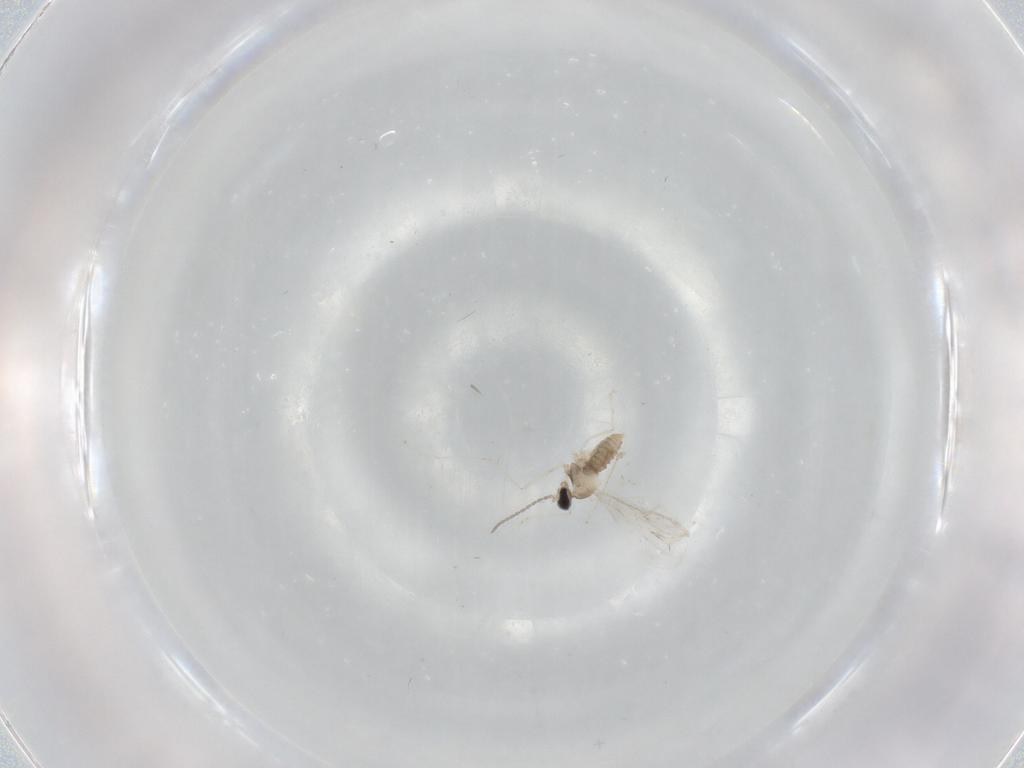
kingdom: Animalia
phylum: Arthropoda
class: Insecta
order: Diptera
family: Cecidomyiidae
